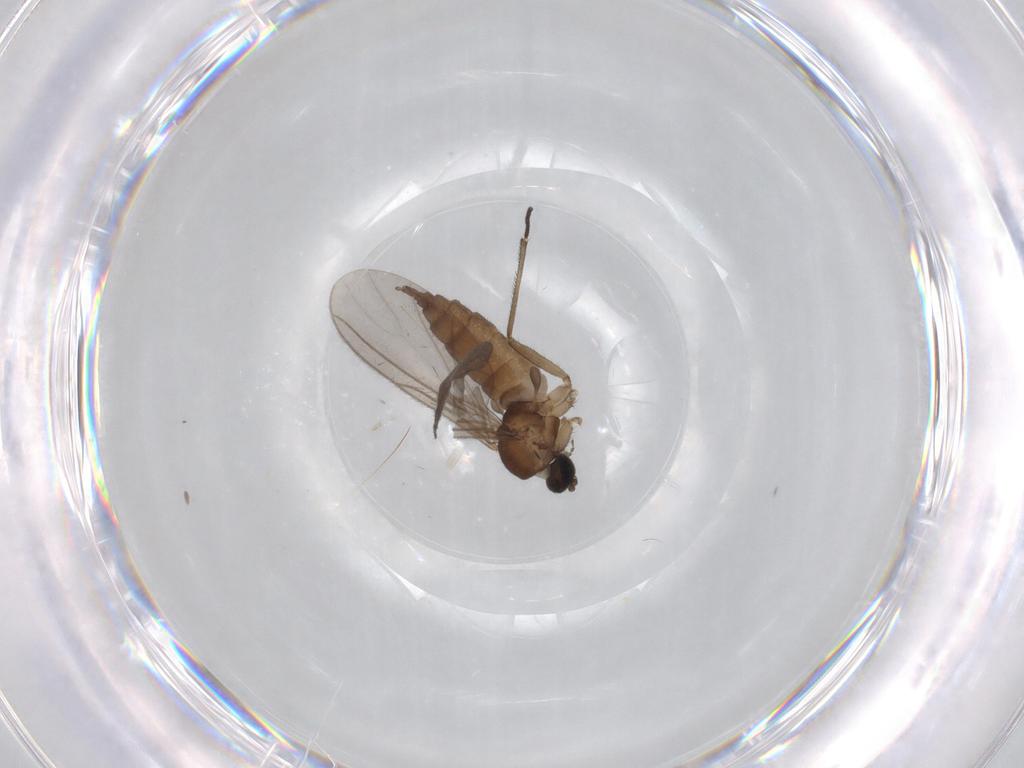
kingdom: Animalia
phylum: Arthropoda
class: Insecta
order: Diptera
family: Sciaridae
